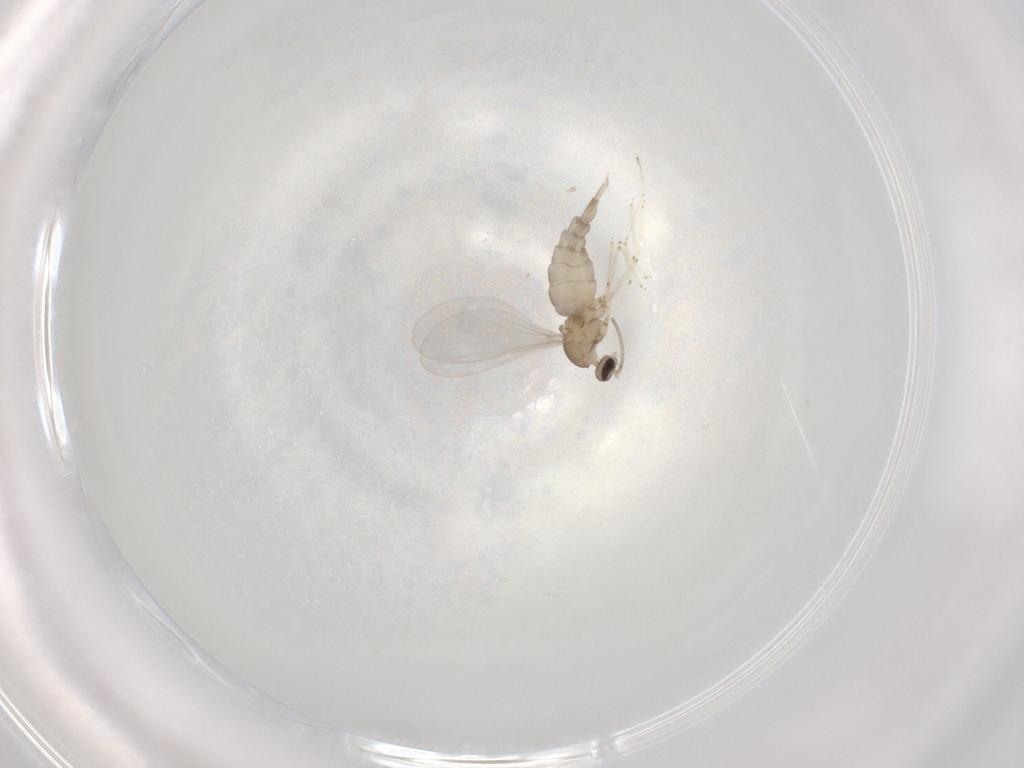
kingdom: Animalia
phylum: Arthropoda
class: Insecta
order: Diptera
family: Cecidomyiidae
